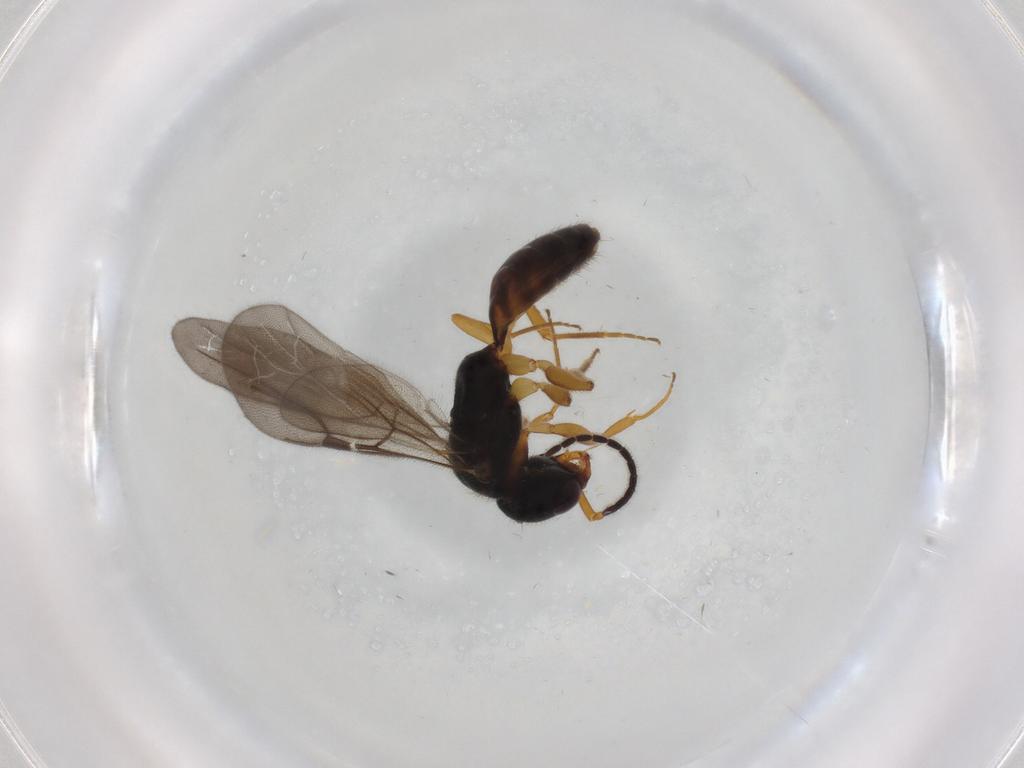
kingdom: Animalia
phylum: Arthropoda
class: Insecta
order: Hymenoptera
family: Bethylidae
